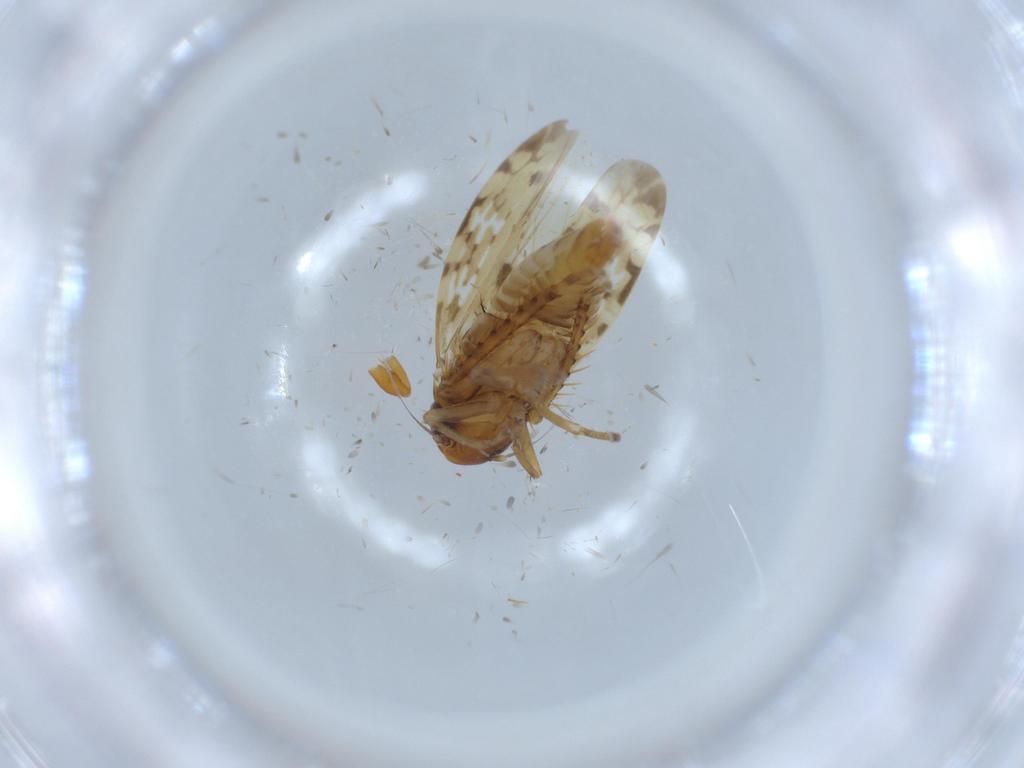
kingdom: Animalia
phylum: Arthropoda
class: Insecta
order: Hemiptera
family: Cicadellidae
